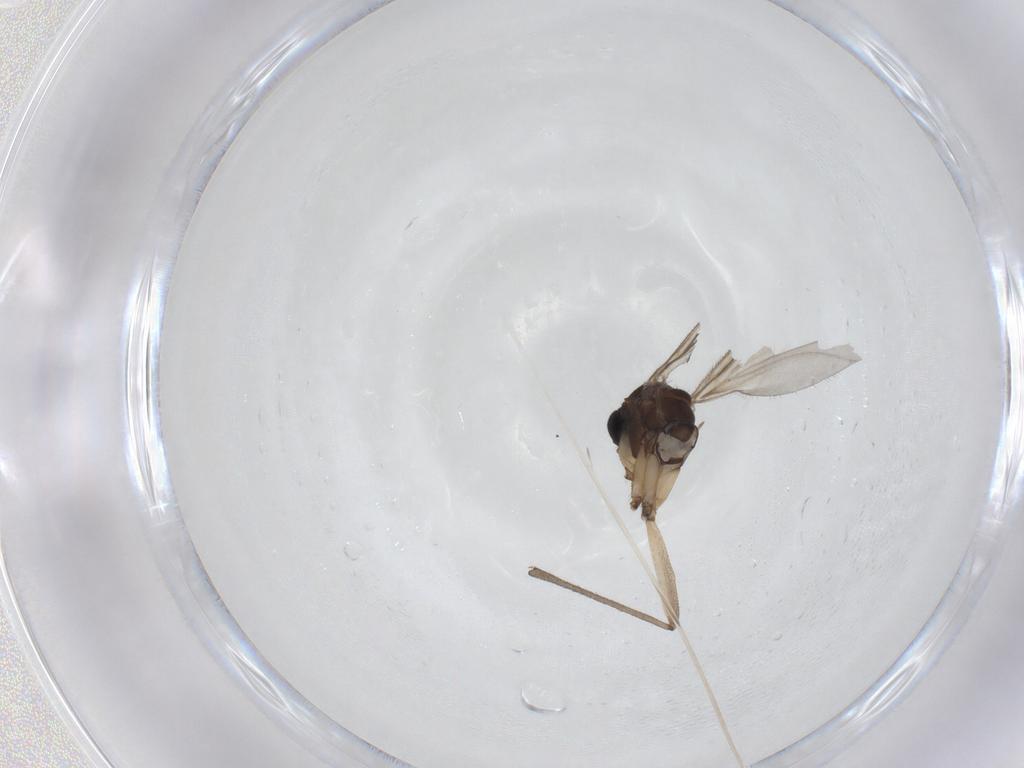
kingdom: Animalia
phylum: Arthropoda
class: Insecta
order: Diptera
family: Sciaridae
